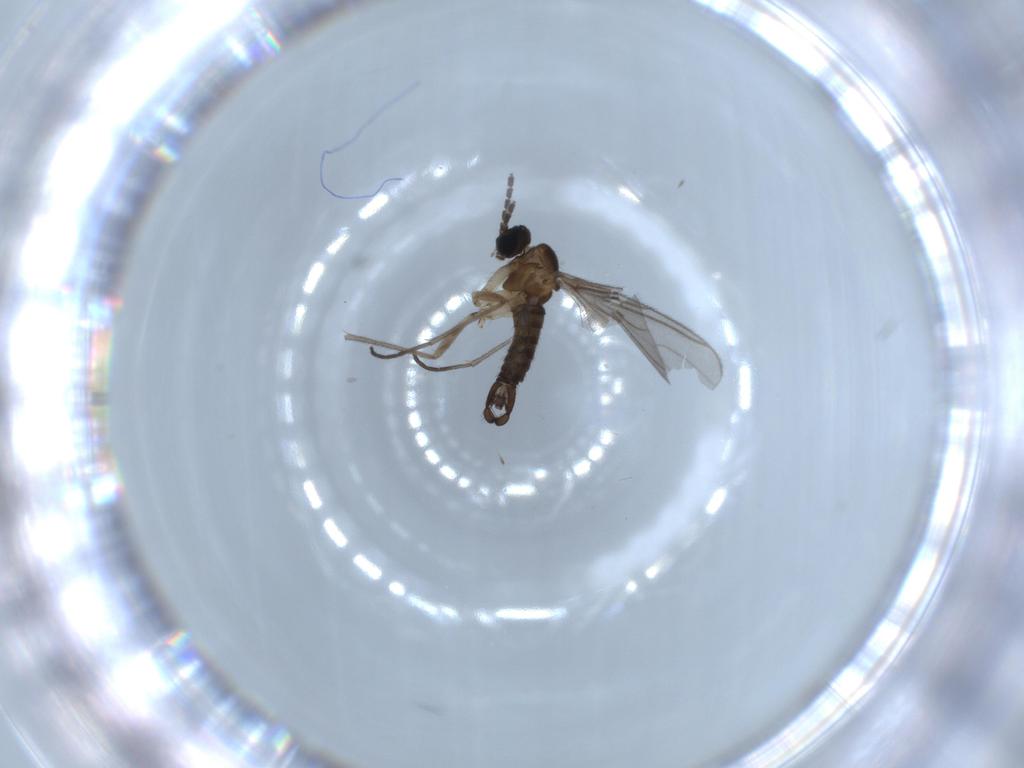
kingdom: Animalia
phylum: Arthropoda
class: Insecta
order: Diptera
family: Sciaridae
